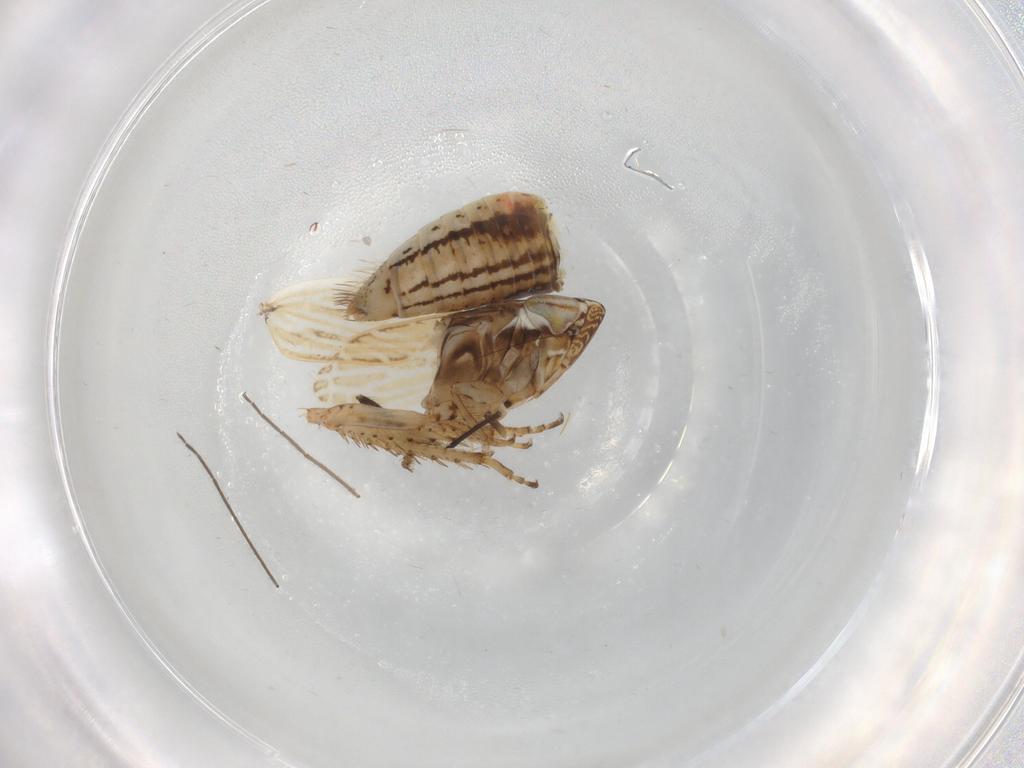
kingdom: Animalia
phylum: Arthropoda
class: Insecta
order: Hemiptera
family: Cicadellidae
